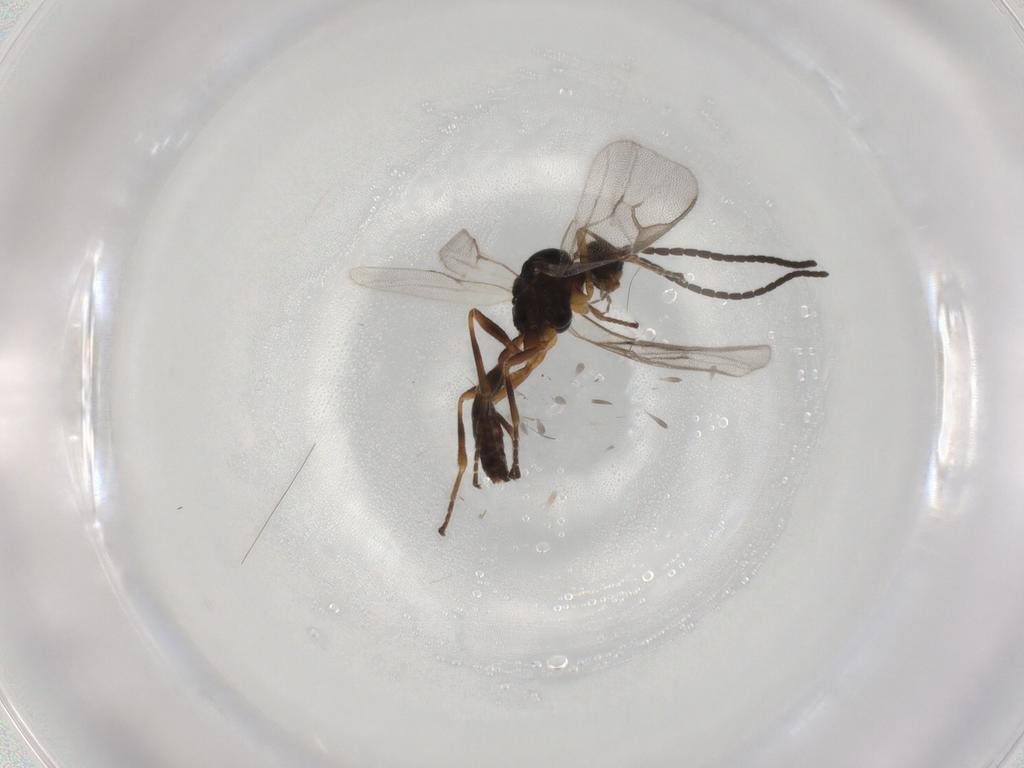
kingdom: Animalia
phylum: Arthropoda
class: Insecta
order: Hymenoptera
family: Braconidae
